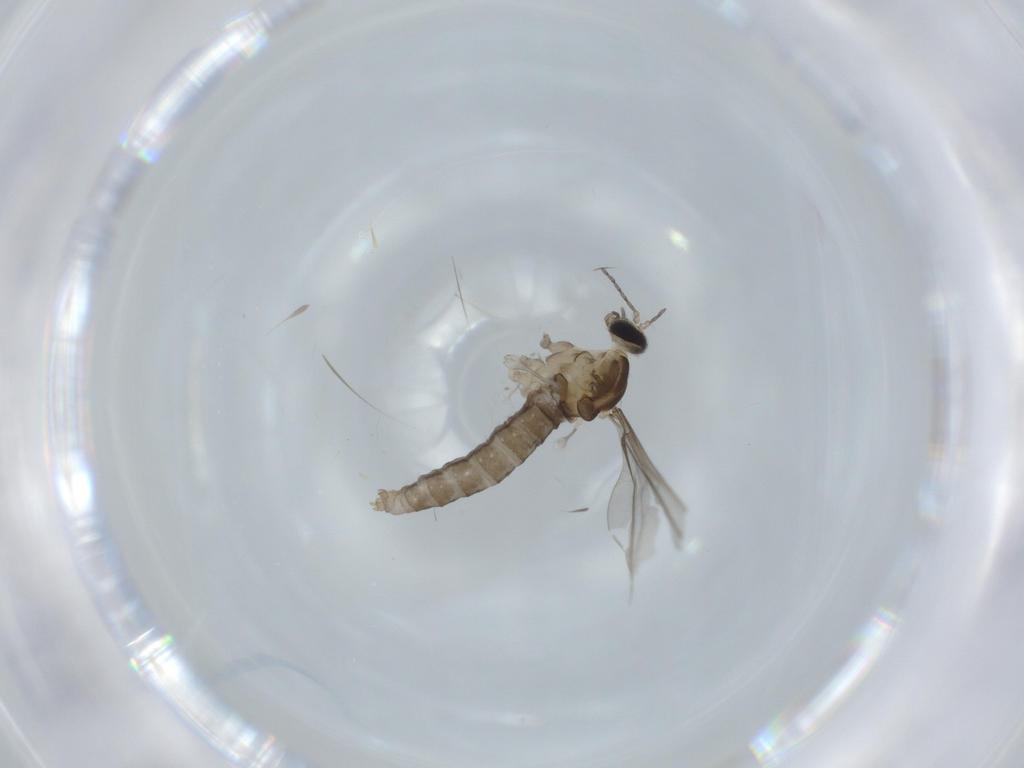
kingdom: Animalia
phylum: Arthropoda
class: Insecta
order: Diptera
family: Cecidomyiidae
